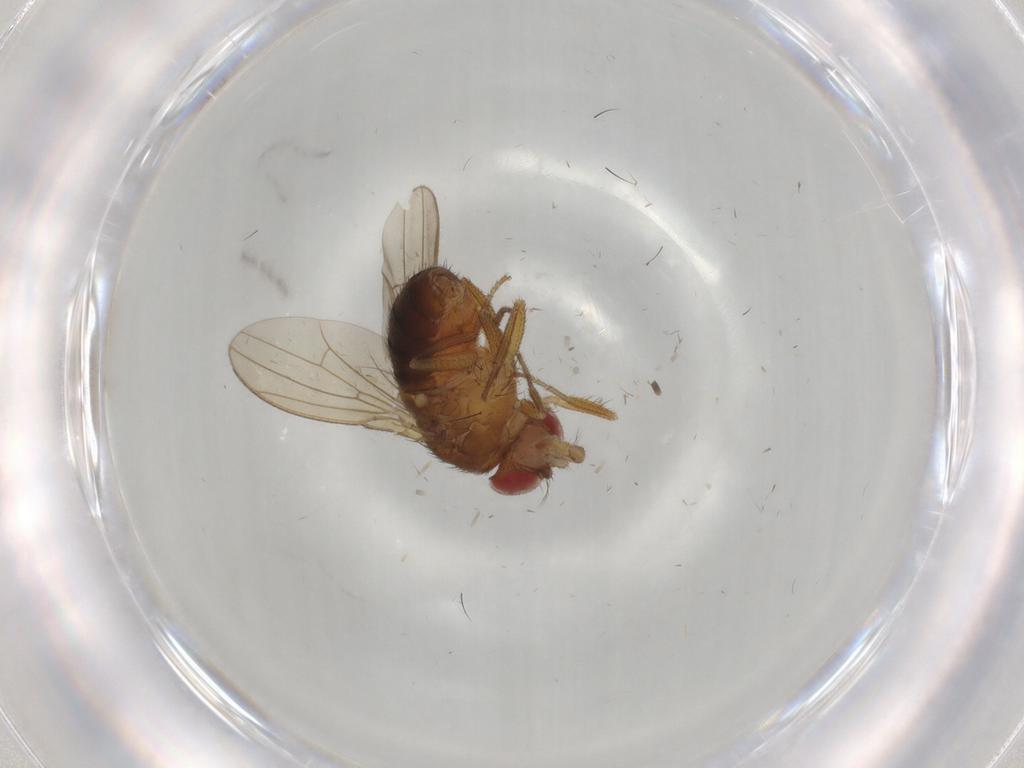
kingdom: Animalia
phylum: Arthropoda
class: Insecta
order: Diptera
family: Drosophilidae
